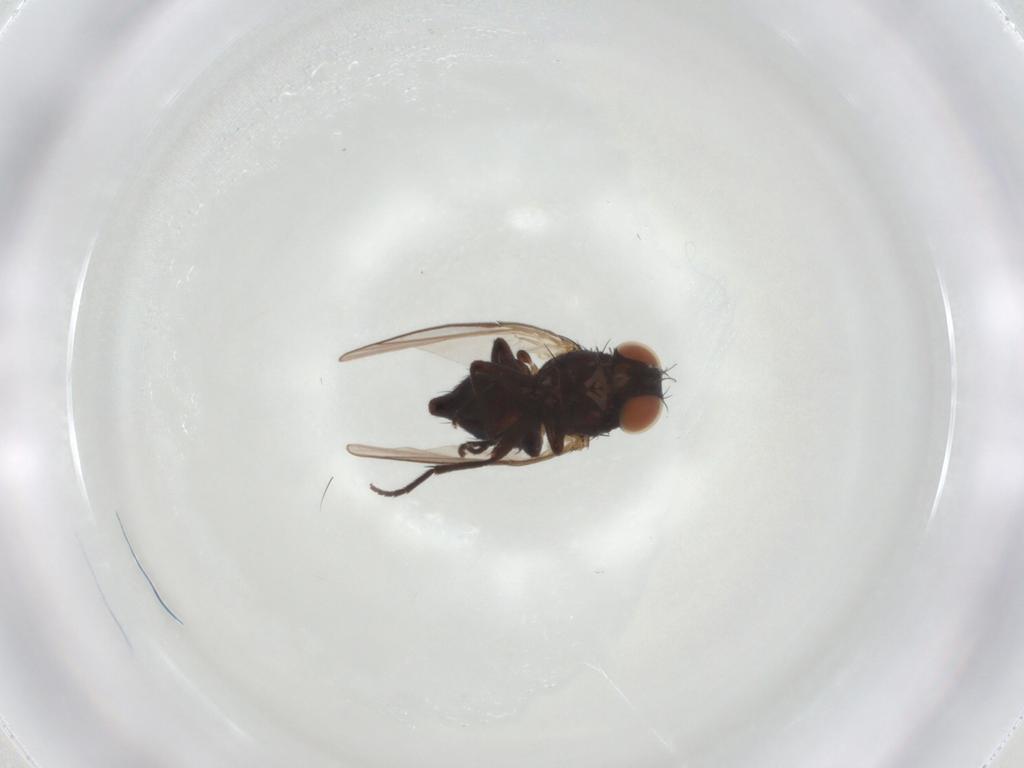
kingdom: Animalia
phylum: Arthropoda
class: Insecta
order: Diptera
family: Agromyzidae
